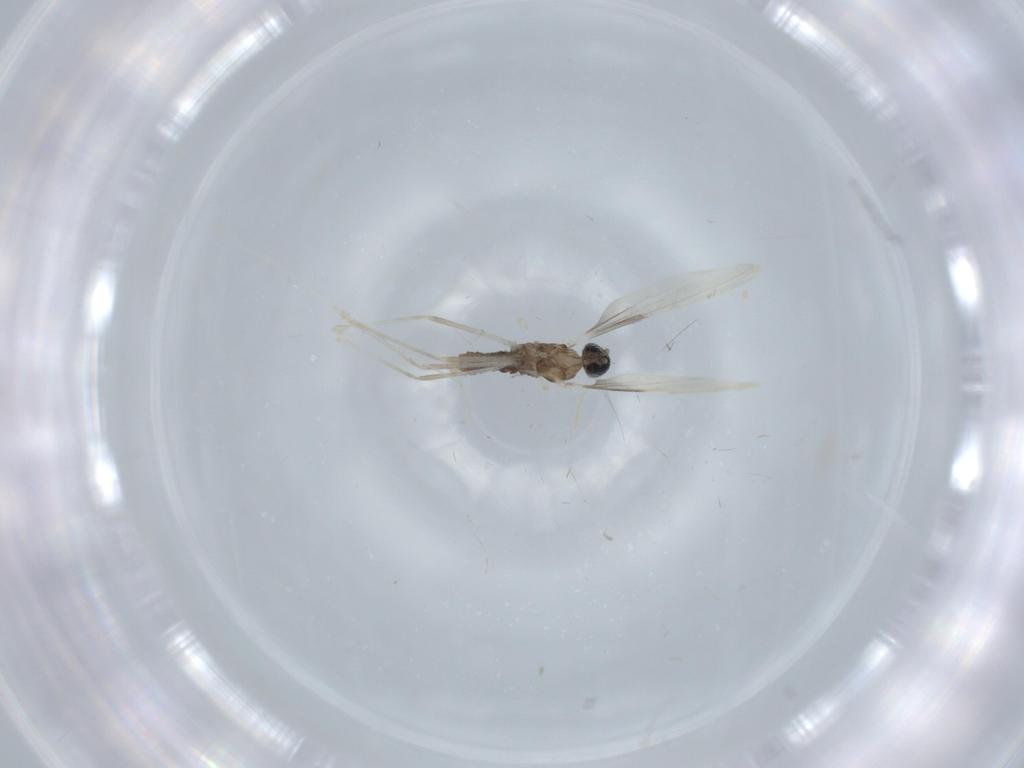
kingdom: Animalia
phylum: Arthropoda
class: Insecta
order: Diptera
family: Cecidomyiidae
